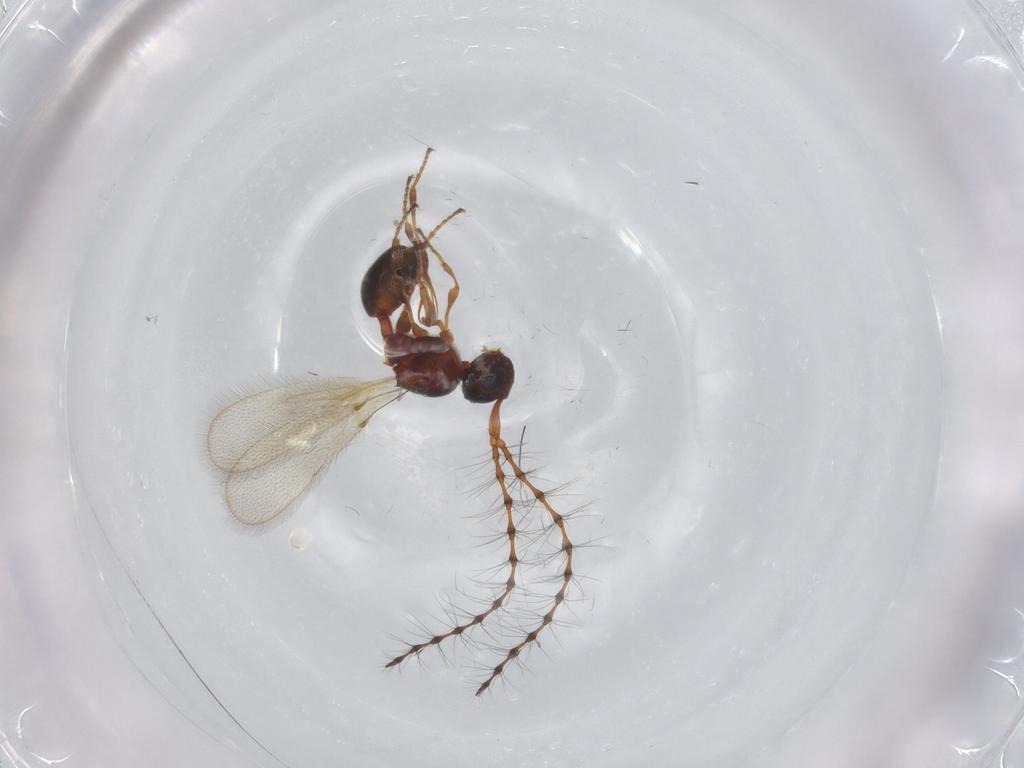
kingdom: Animalia
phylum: Arthropoda
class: Insecta
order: Hymenoptera
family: Diapriidae
